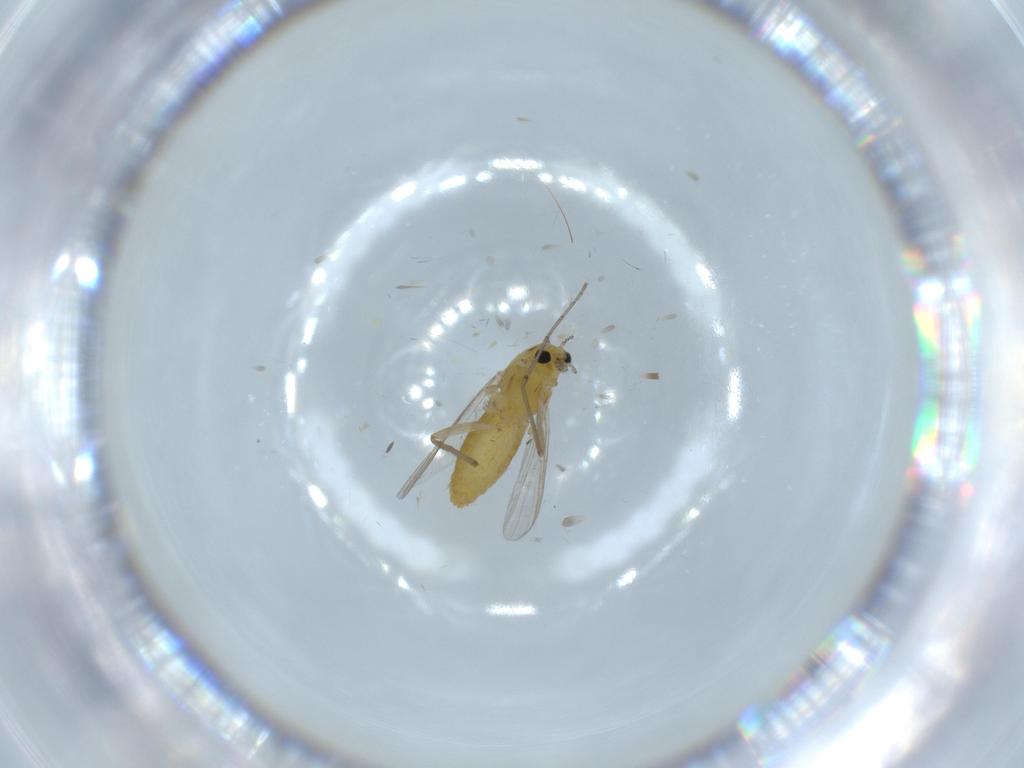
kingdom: Animalia
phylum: Arthropoda
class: Insecta
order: Diptera
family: Chironomidae
